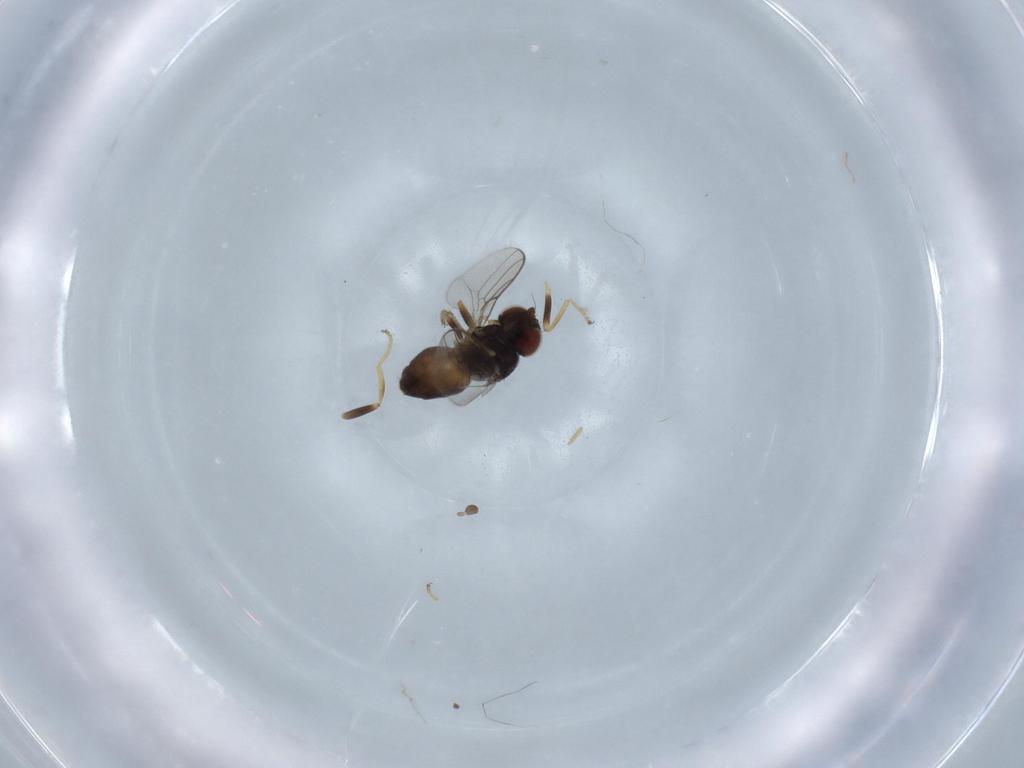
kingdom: Animalia
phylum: Arthropoda
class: Insecta
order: Diptera
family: Chloropidae
